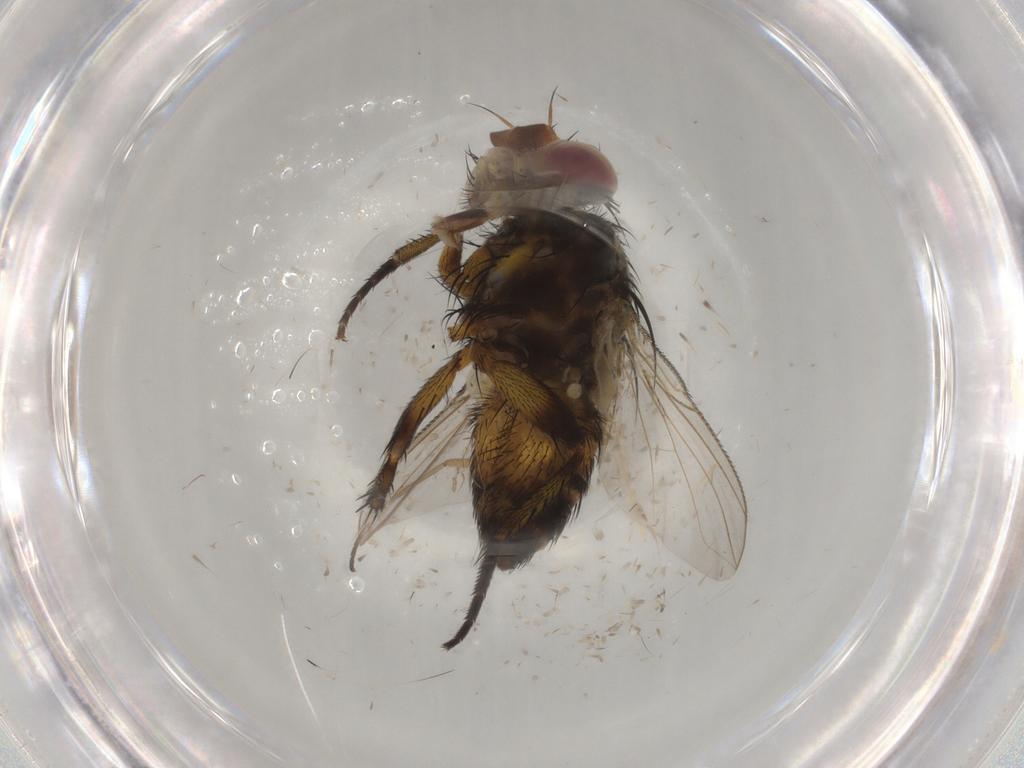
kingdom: Animalia
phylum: Arthropoda
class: Insecta
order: Diptera
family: Tachinidae
